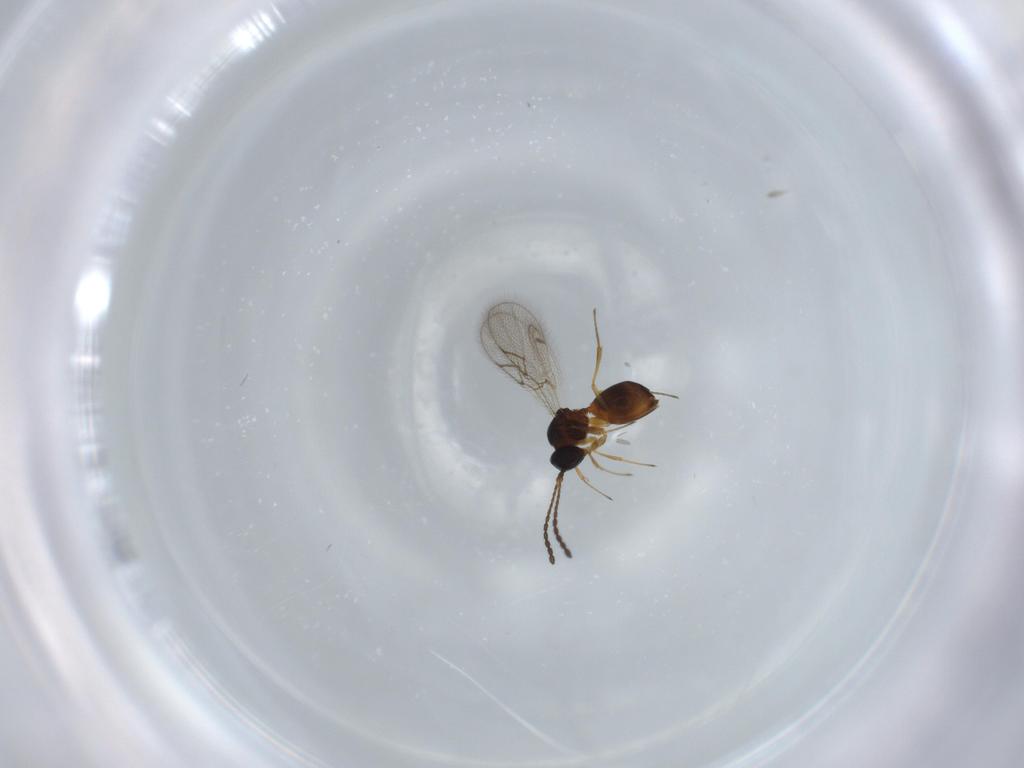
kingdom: Animalia
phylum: Arthropoda
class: Insecta
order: Hymenoptera
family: Figitidae
